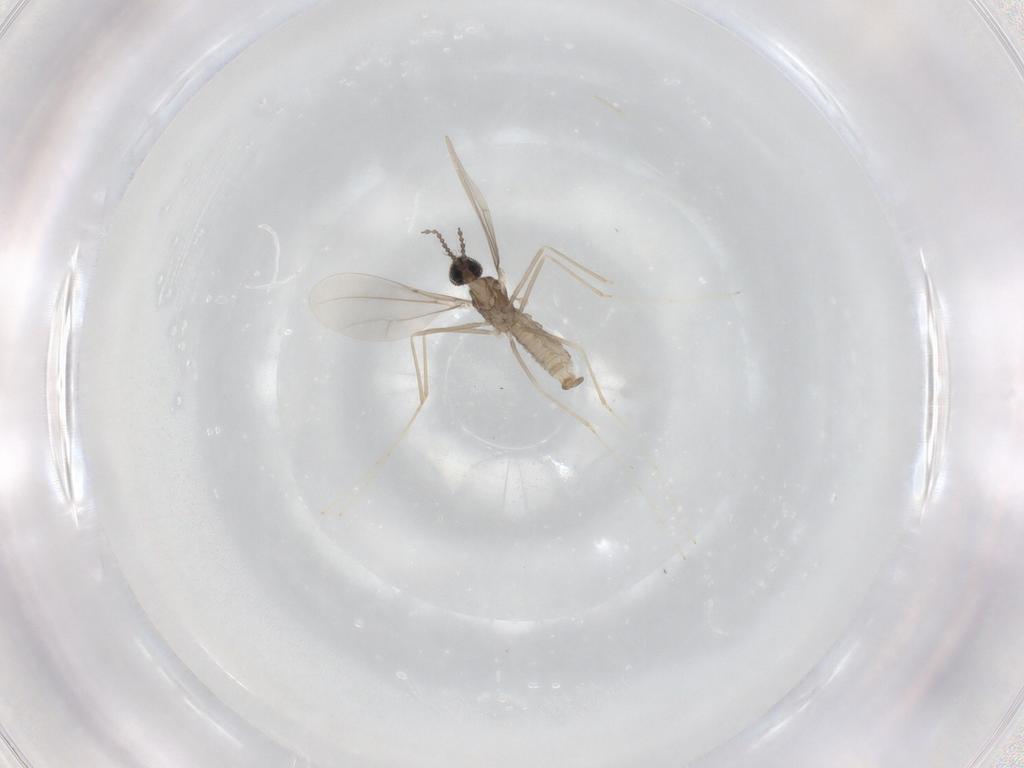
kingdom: Animalia
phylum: Arthropoda
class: Insecta
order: Diptera
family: Cecidomyiidae
